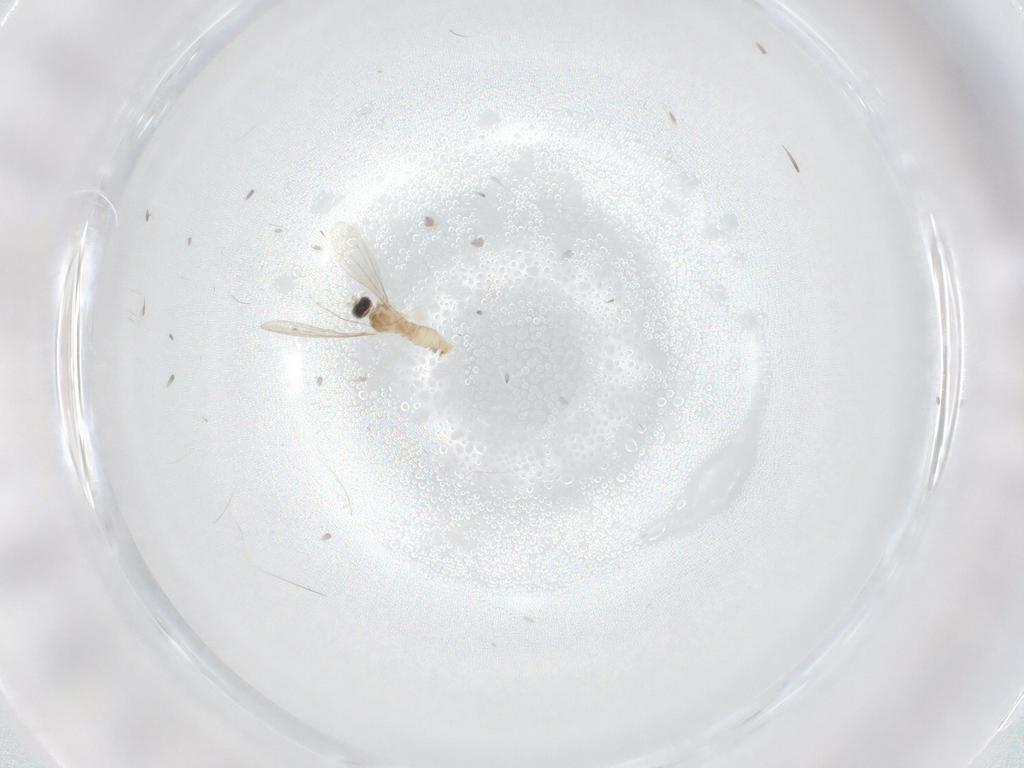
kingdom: Animalia
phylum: Arthropoda
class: Insecta
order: Diptera
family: Cecidomyiidae
